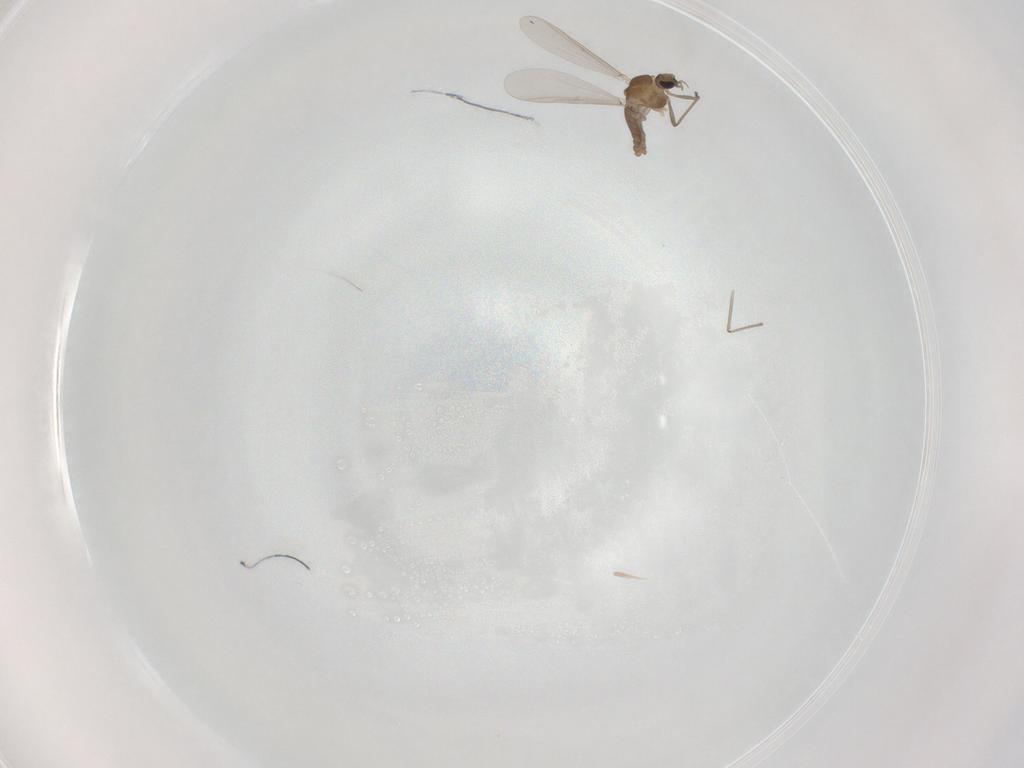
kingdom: Animalia
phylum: Arthropoda
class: Insecta
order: Diptera
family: Chironomidae
